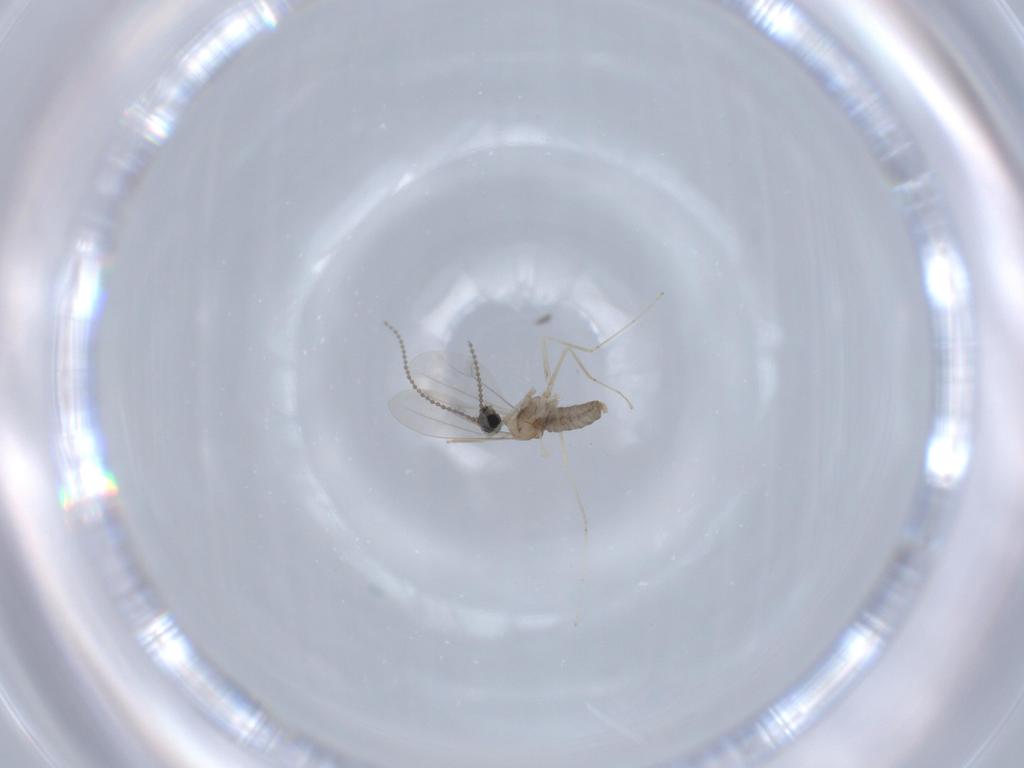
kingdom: Animalia
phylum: Arthropoda
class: Insecta
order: Diptera
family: Cecidomyiidae
